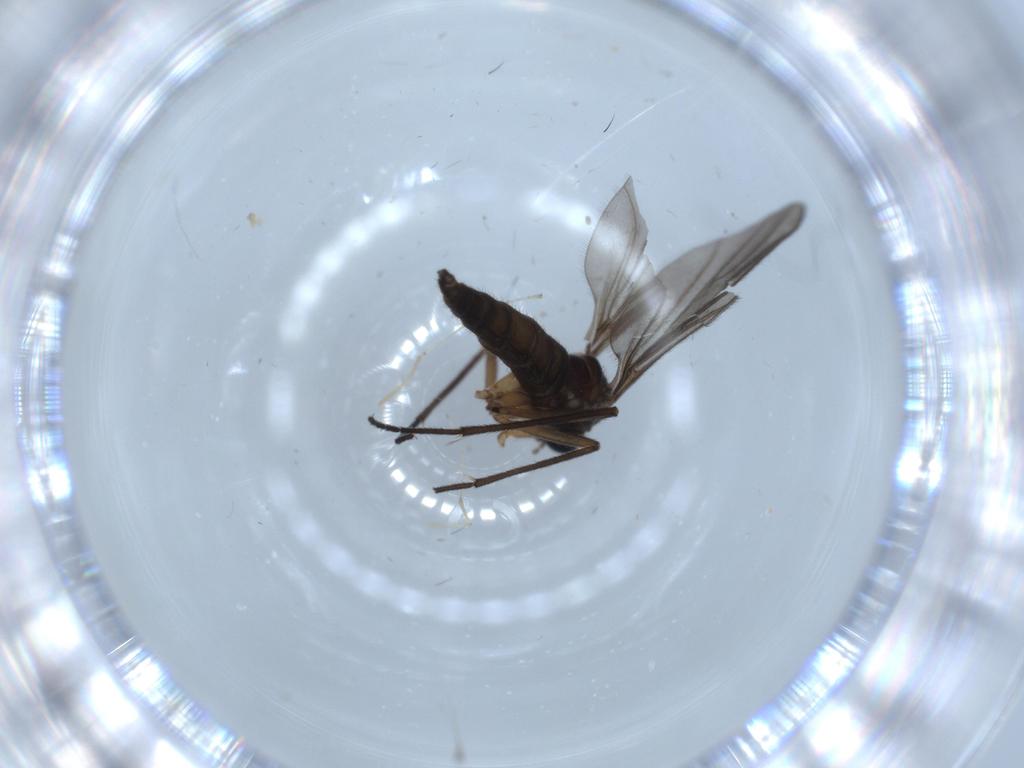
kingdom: Animalia
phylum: Arthropoda
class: Insecta
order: Diptera
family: Sciaridae
